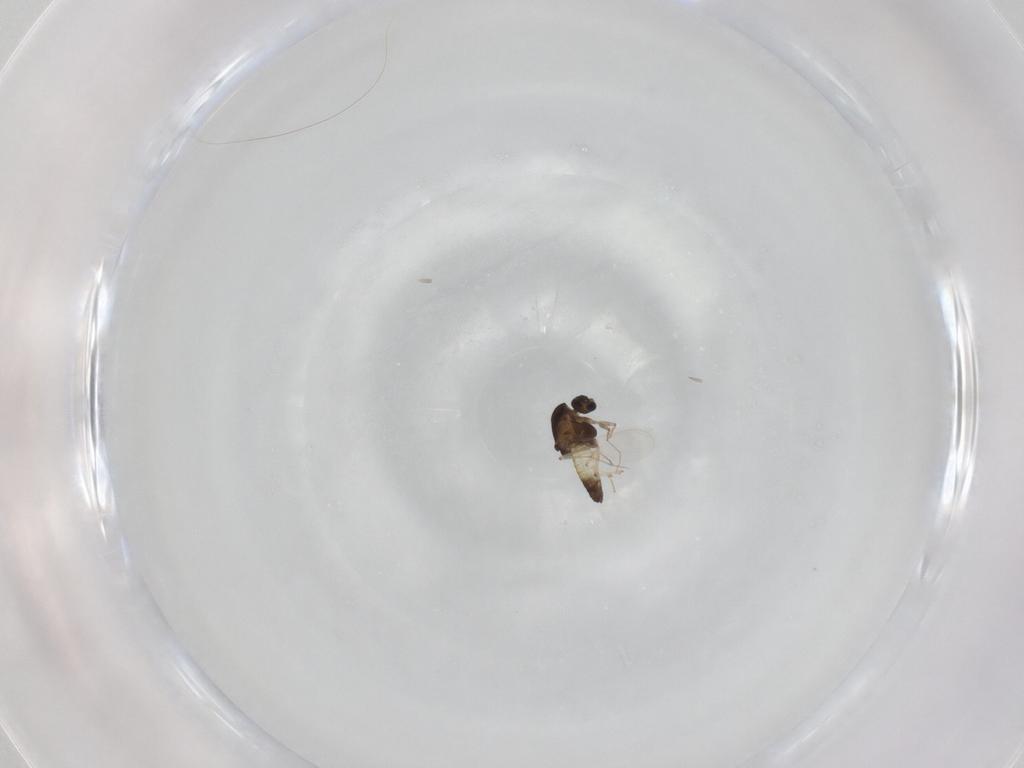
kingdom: Animalia
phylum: Arthropoda
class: Insecta
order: Diptera
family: Chironomidae
